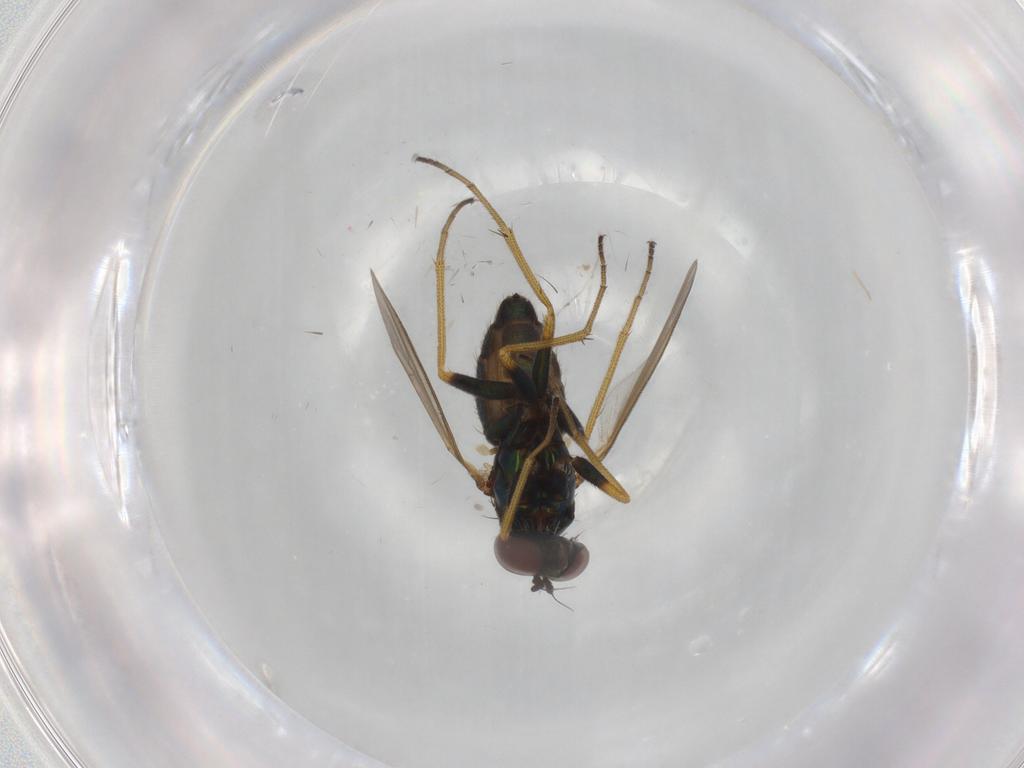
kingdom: Animalia
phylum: Arthropoda
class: Insecta
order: Diptera
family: Dolichopodidae
